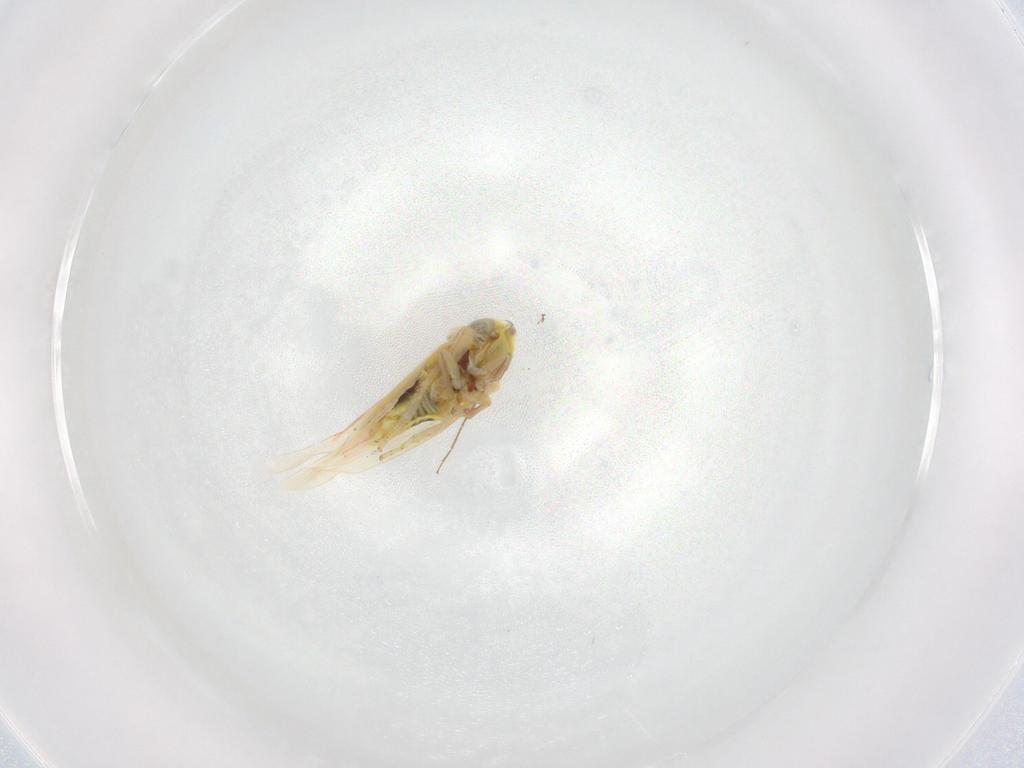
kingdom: Animalia
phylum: Arthropoda
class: Insecta
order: Hemiptera
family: Cicadellidae
